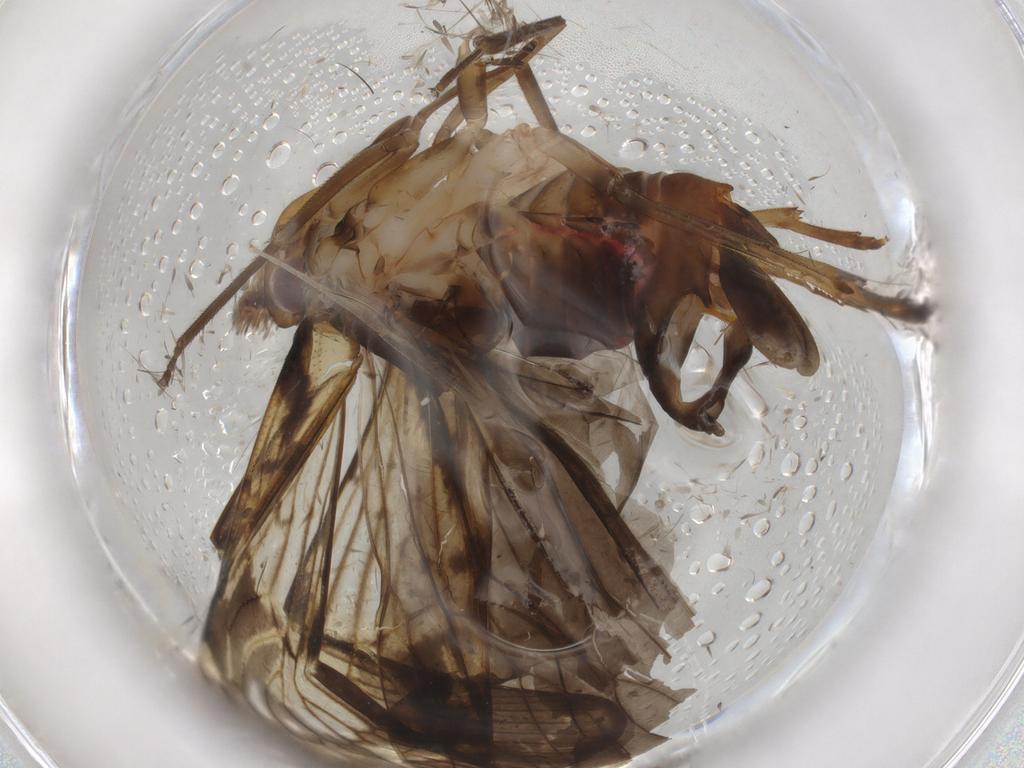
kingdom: Animalia
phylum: Arthropoda
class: Insecta
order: Hemiptera
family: Cixiidae
